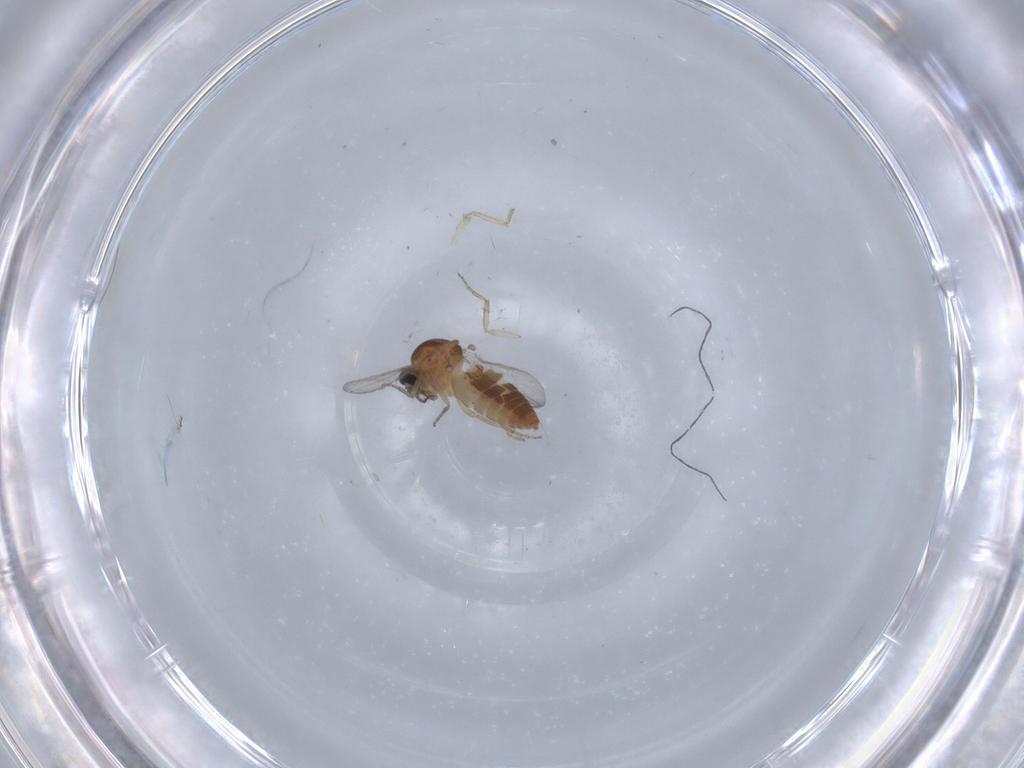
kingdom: Animalia
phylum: Arthropoda
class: Insecta
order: Diptera
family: Ceratopogonidae
